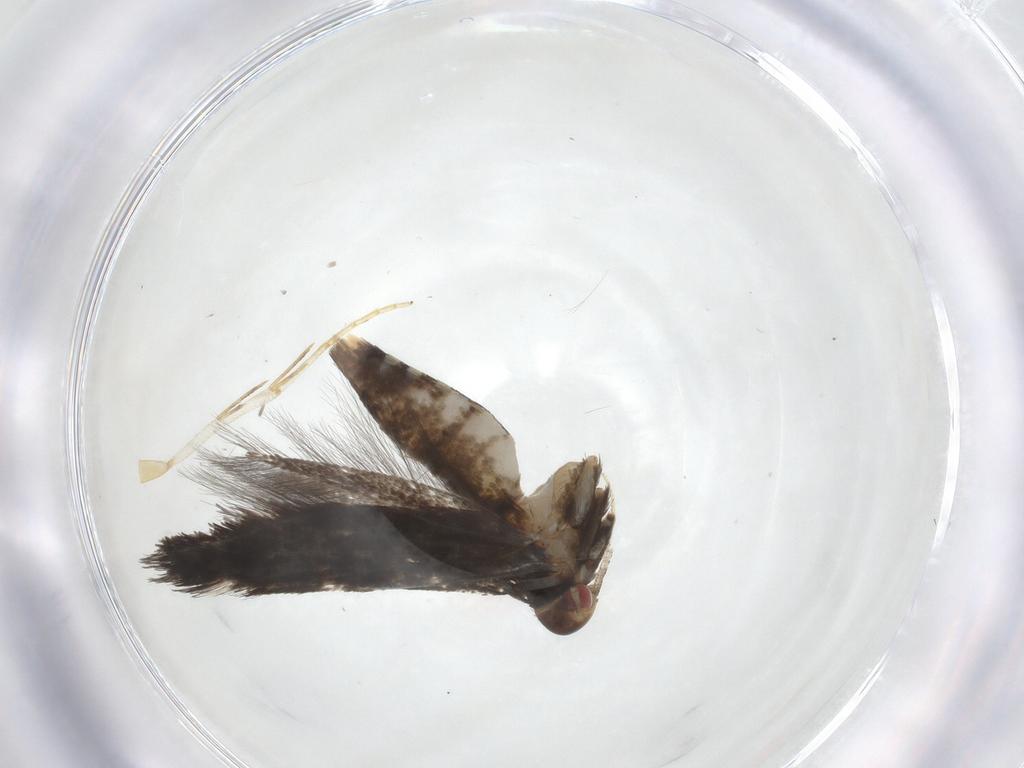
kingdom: Animalia
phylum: Arthropoda
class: Insecta
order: Lepidoptera
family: Cosmopterigidae
